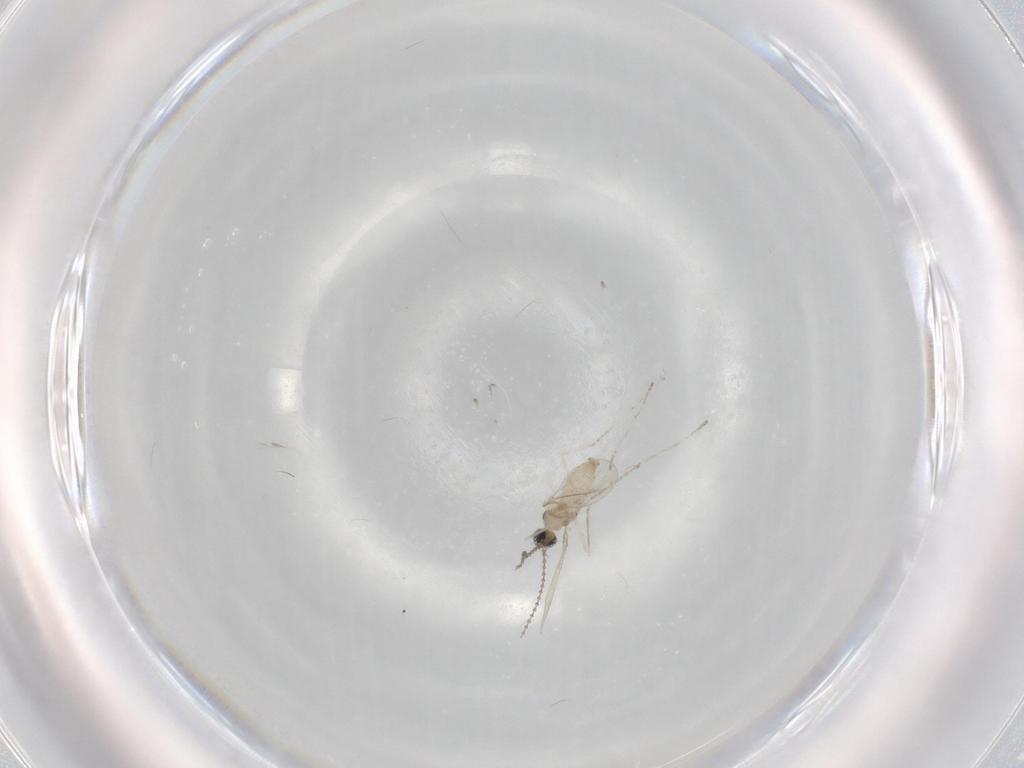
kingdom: Animalia
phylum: Arthropoda
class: Insecta
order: Diptera
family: Cecidomyiidae
